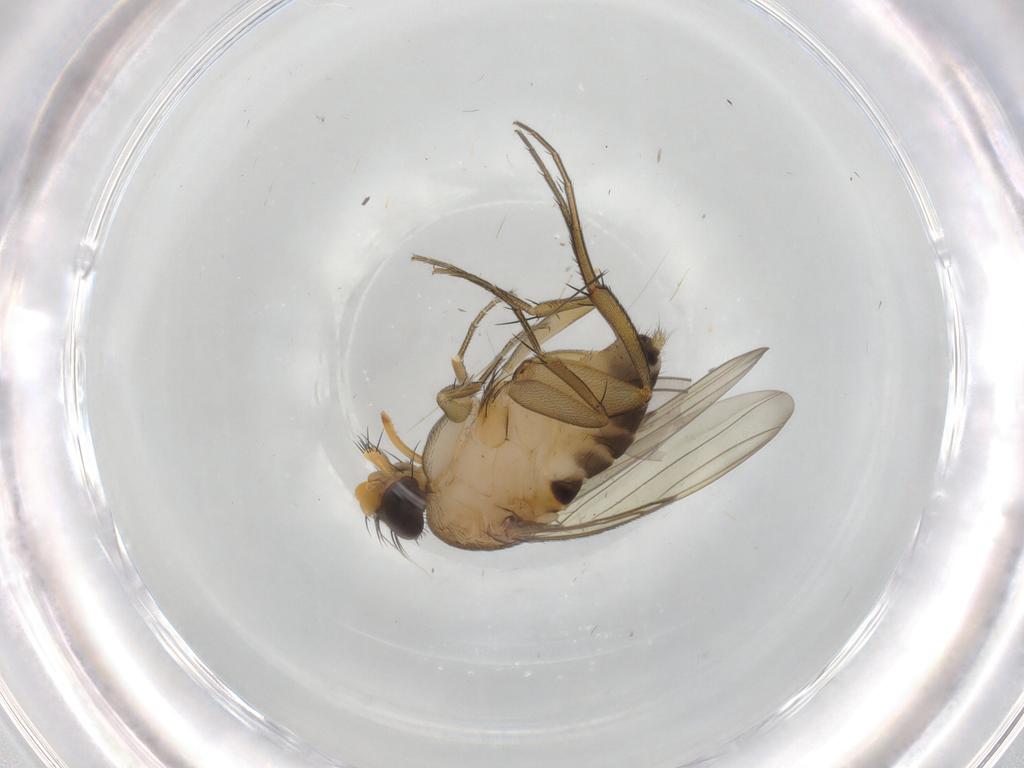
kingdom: Animalia
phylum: Arthropoda
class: Insecta
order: Diptera
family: Phoridae
